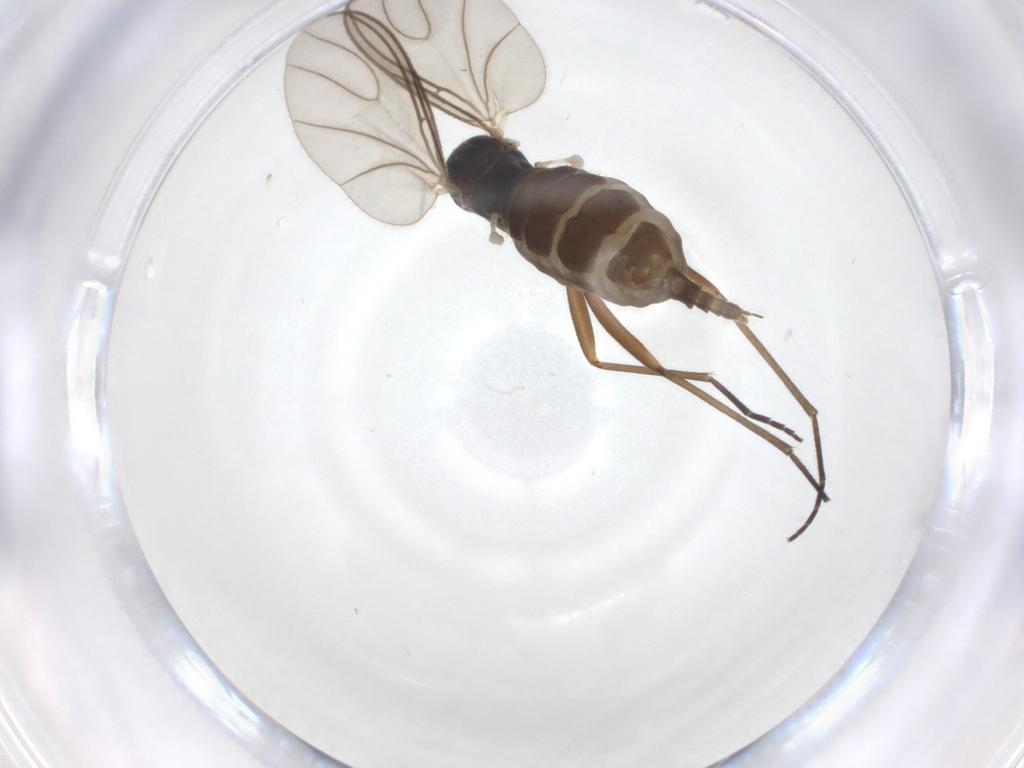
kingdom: Animalia
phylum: Arthropoda
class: Insecta
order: Diptera
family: Sciaridae
